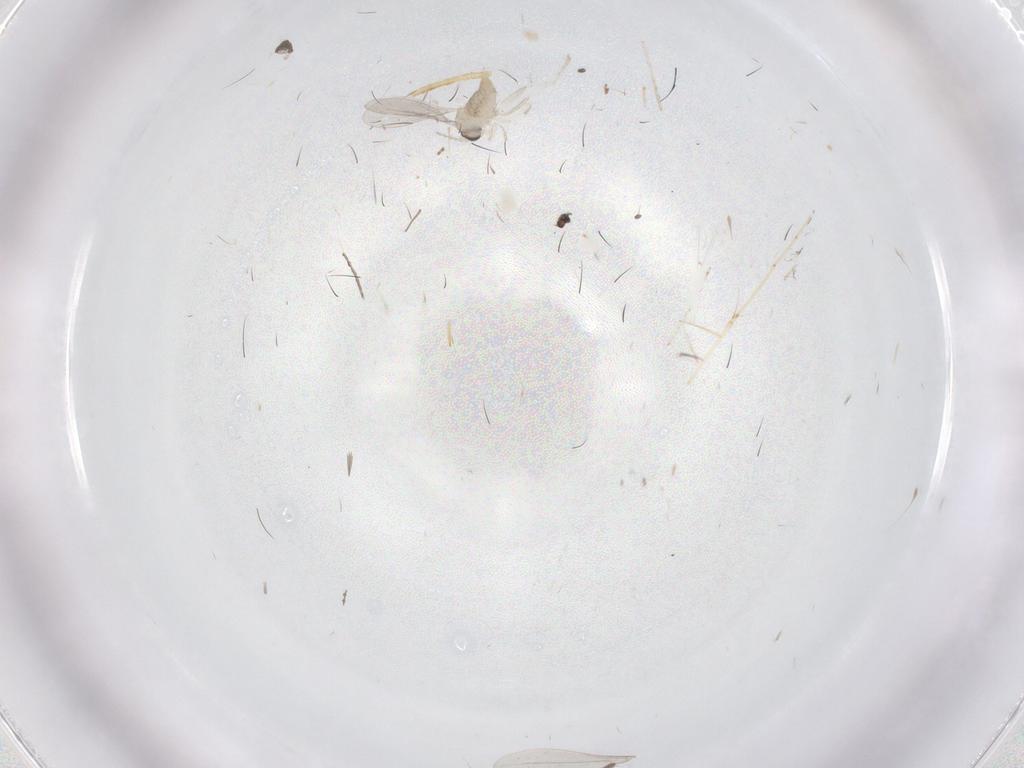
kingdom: Animalia
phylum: Arthropoda
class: Insecta
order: Diptera
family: Cecidomyiidae
